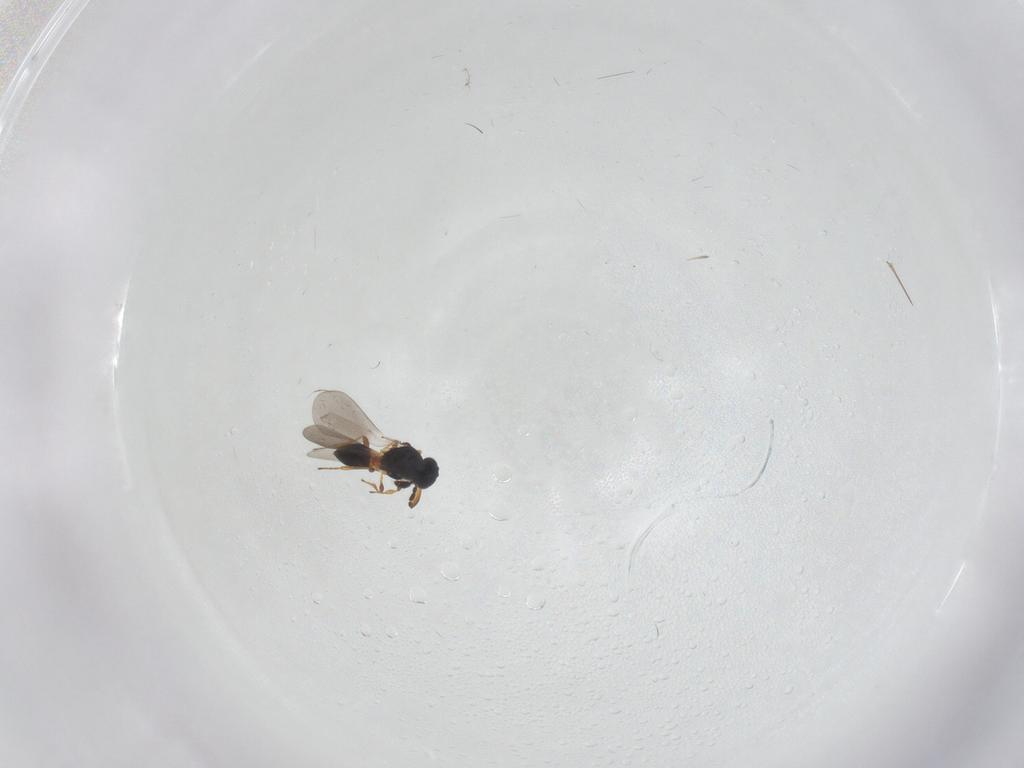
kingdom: Animalia
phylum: Arthropoda
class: Insecta
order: Hymenoptera
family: Platygastridae
